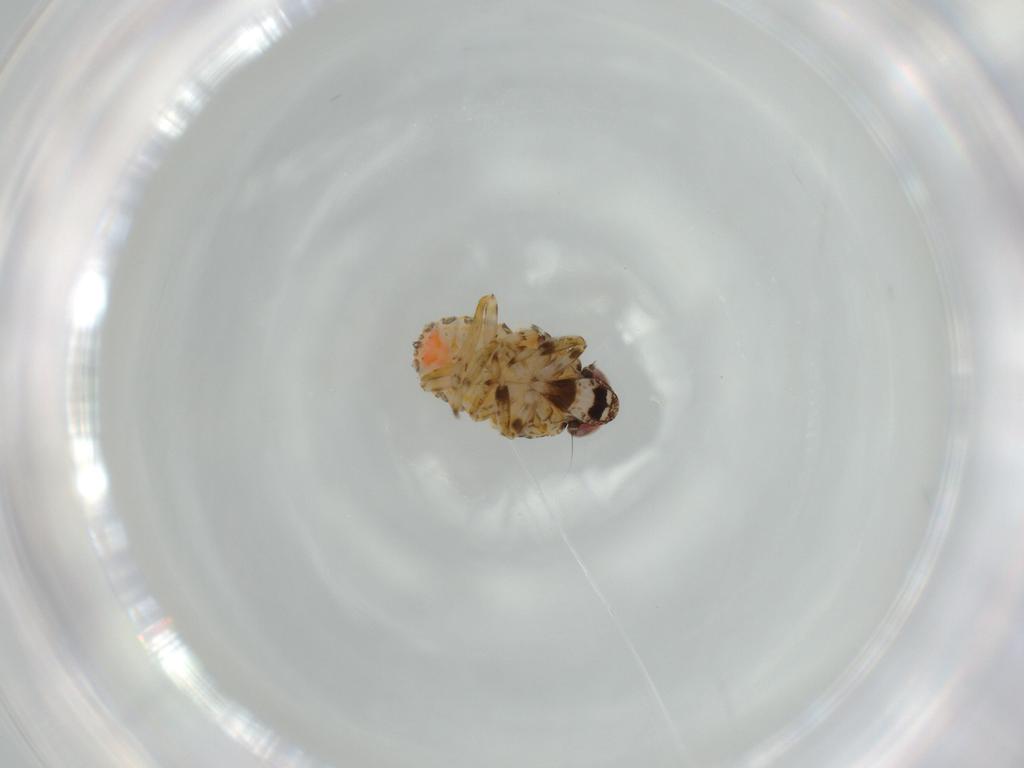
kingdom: Animalia
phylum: Arthropoda
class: Insecta
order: Hemiptera
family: Issidae
